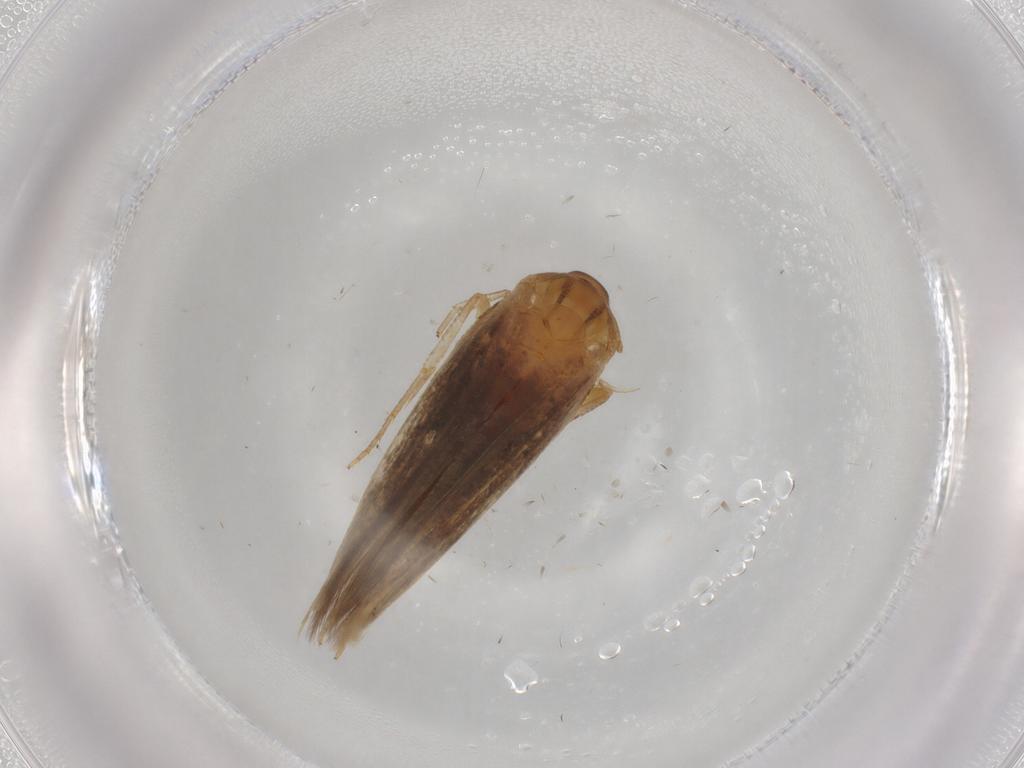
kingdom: Animalia
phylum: Arthropoda
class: Insecta
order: Lepidoptera
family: Cosmopterigidae
